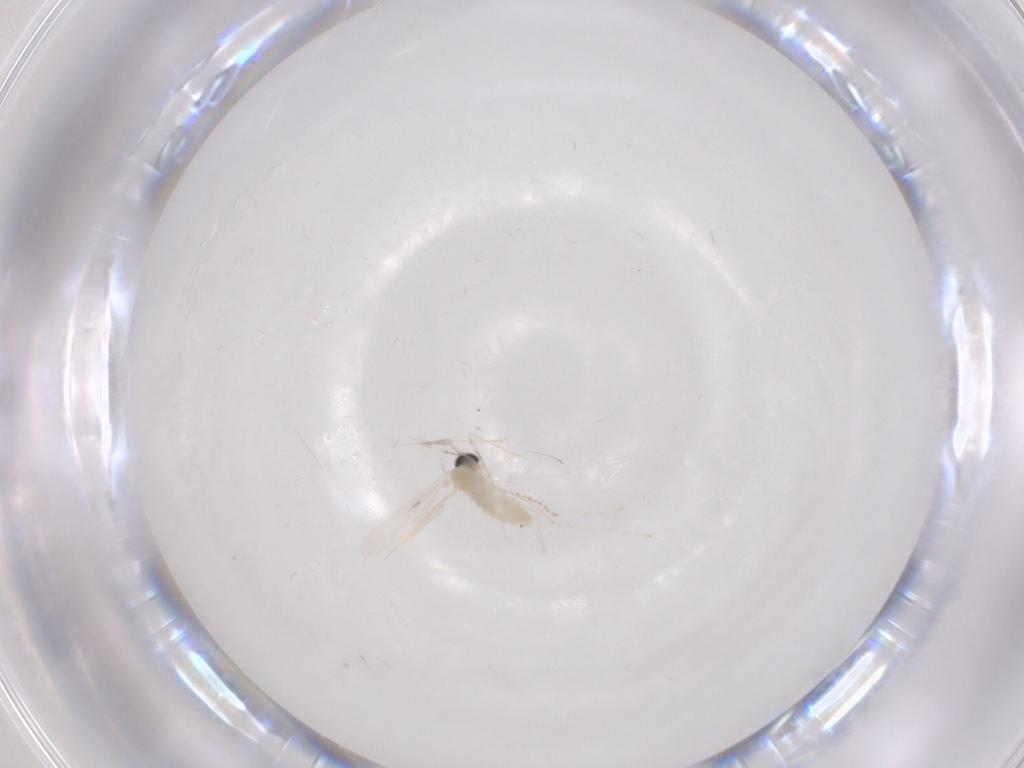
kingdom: Animalia
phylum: Arthropoda
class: Insecta
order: Diptera
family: Cecidomyiidae
